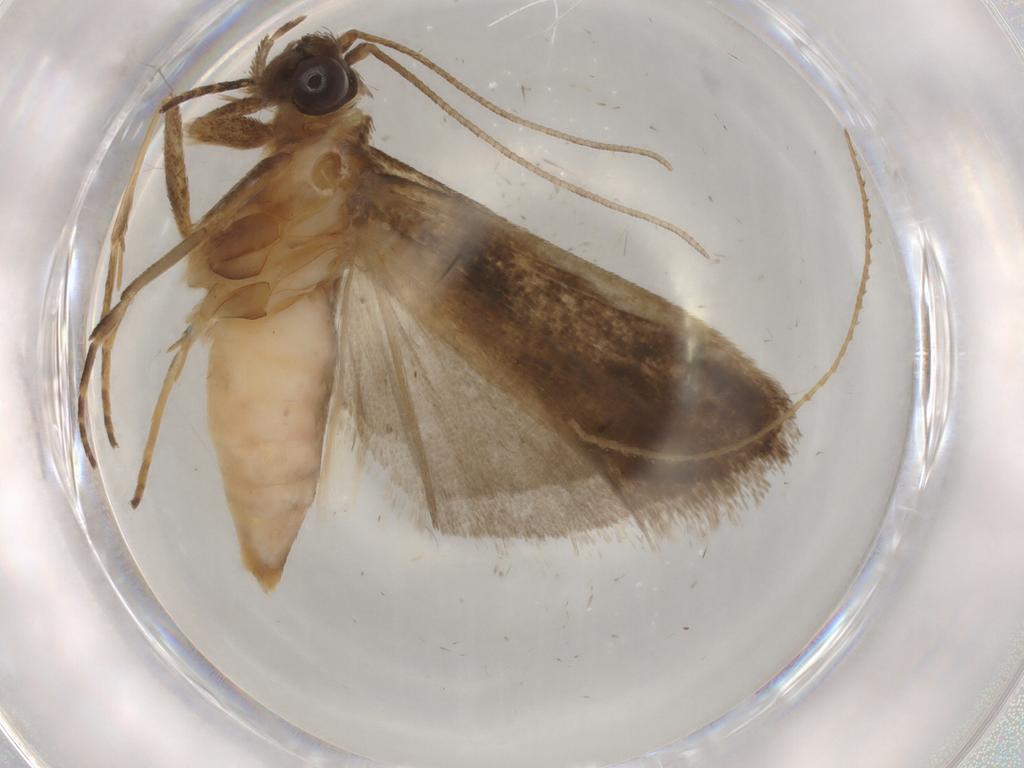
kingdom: Animalia
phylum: Arthropoda
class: Insecta
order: Lepidoptera
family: Noctuidae
